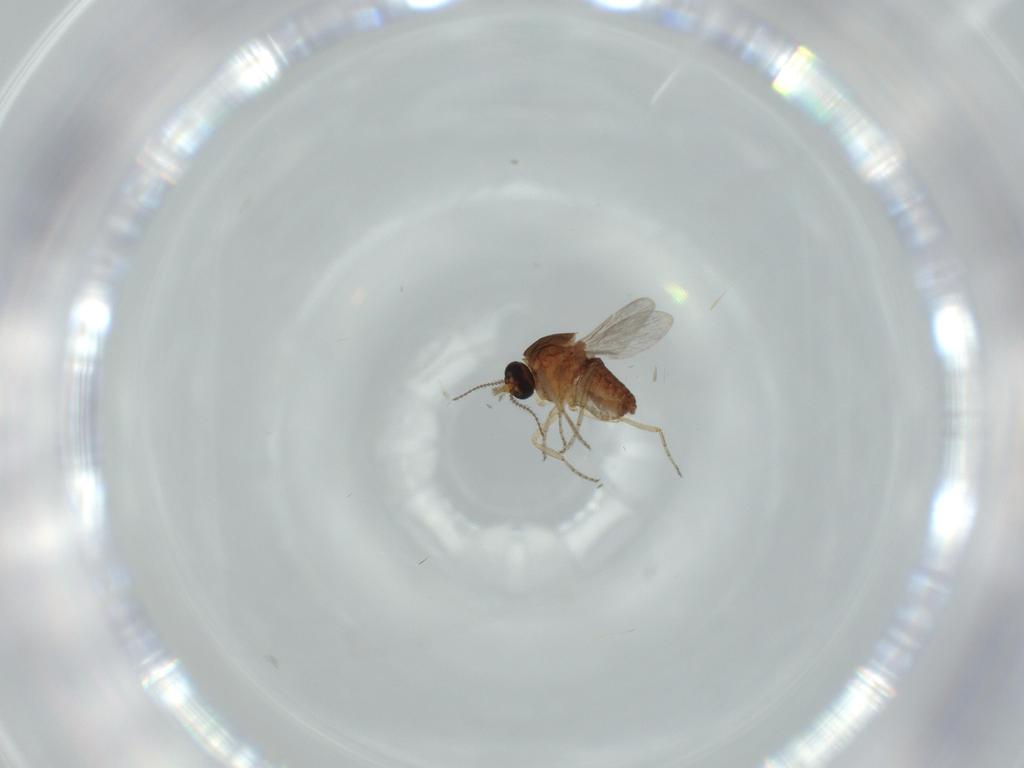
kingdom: Animalia
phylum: Arthropoda
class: Insecta
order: Diptera
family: Ceratopogonidae
